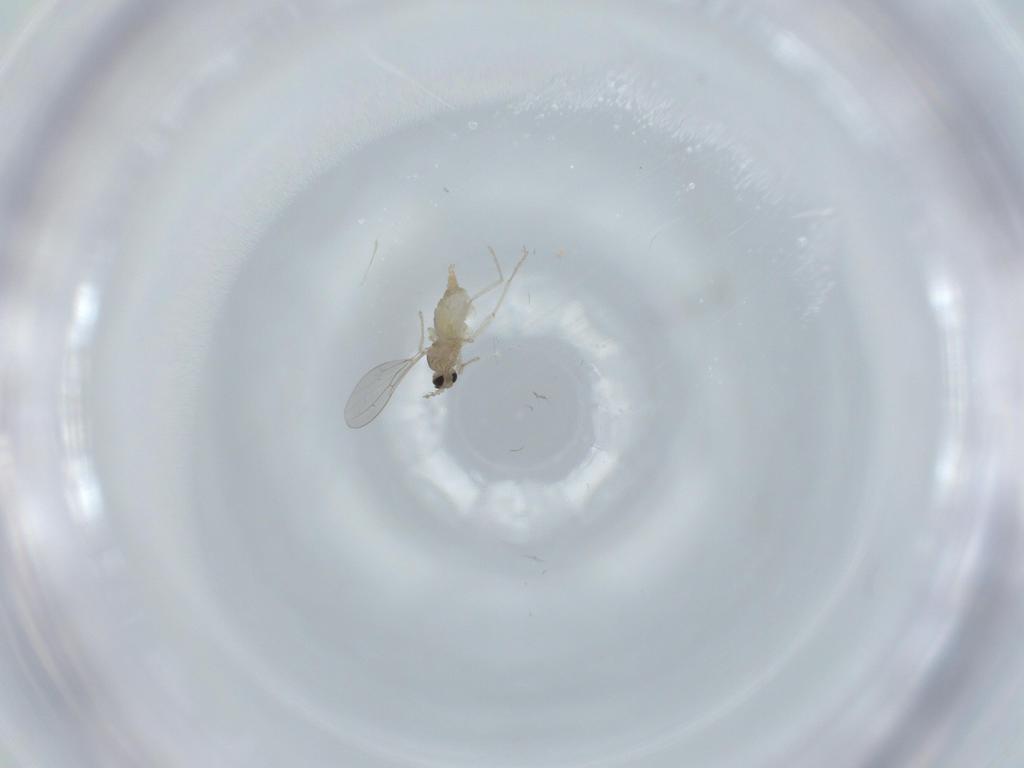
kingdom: Animalia
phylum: Arthropoda
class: Insecta
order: Diptera
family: Cecidomyiidae
